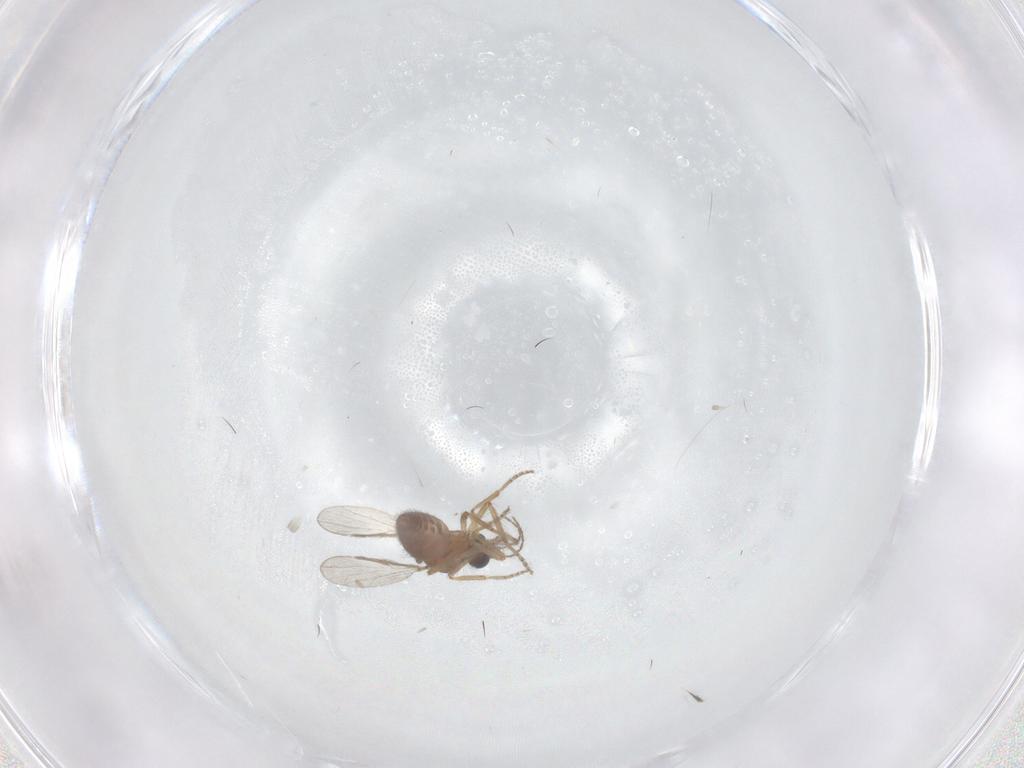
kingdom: Animalia
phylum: Arthropoda
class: Insecta
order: Diptera
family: Ceratopogonidae
